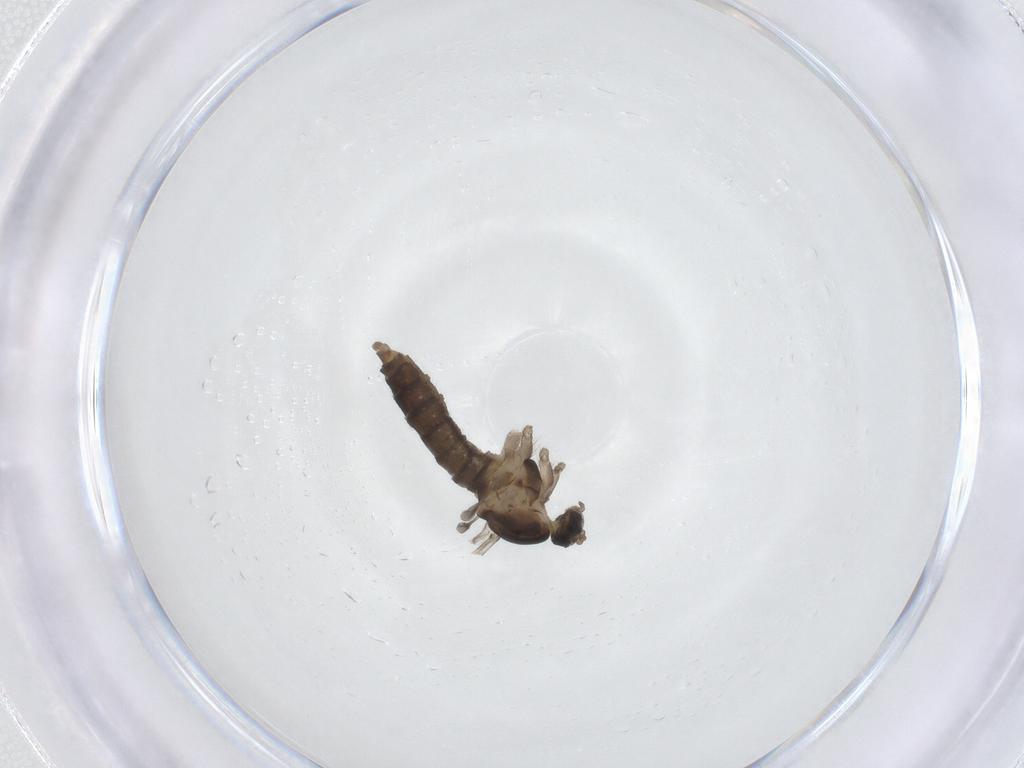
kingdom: Animalia
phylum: Arthropoda
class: Insecta
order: Diptera
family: Cecidomyiidae
